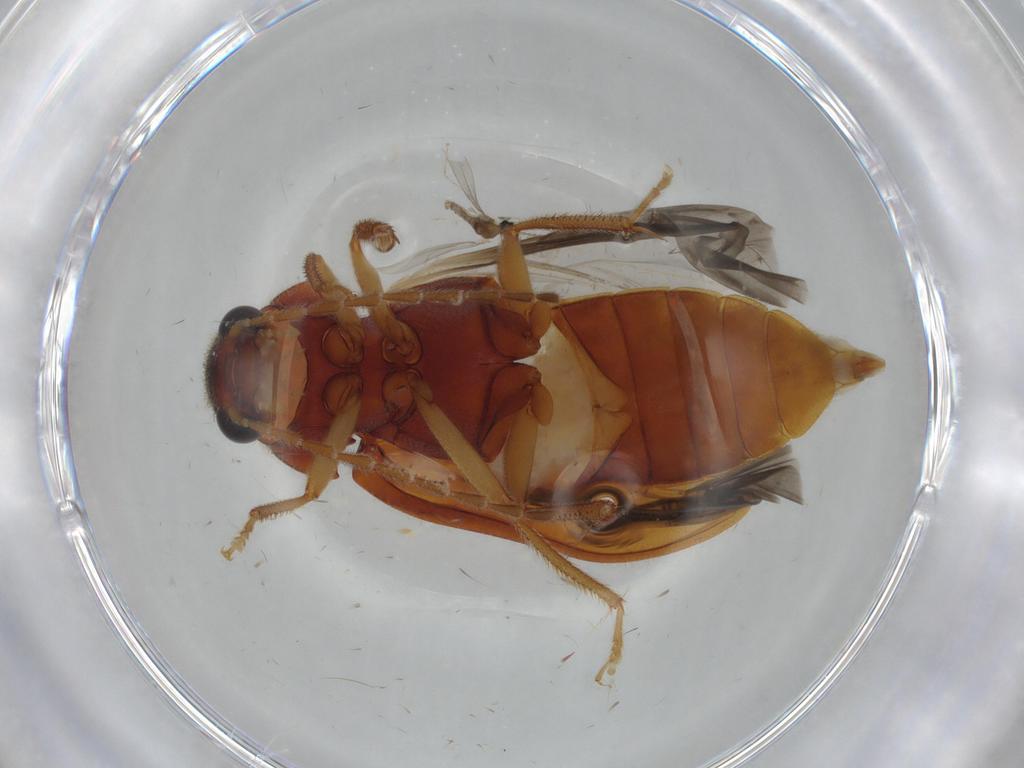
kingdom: Animalia
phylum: Arthropoda
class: Insecta
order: Coleoptera
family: Ptilodactylidae
